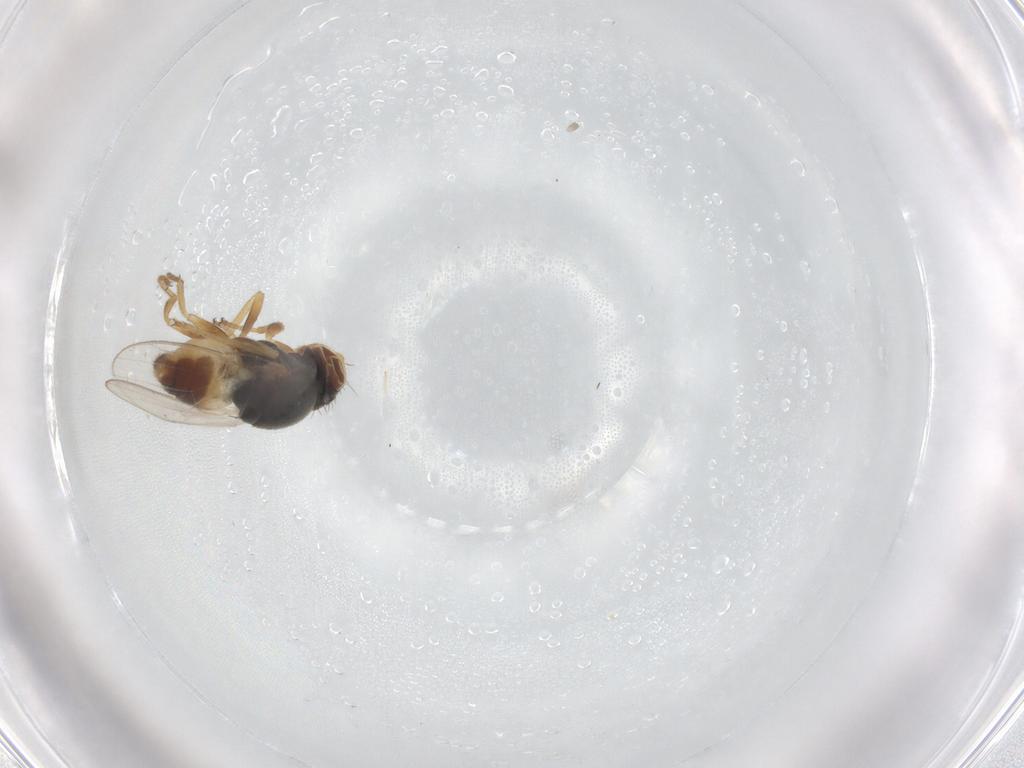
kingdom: Animalia
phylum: Arthropoda
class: Insecta
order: Diptera
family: Chloropidae
